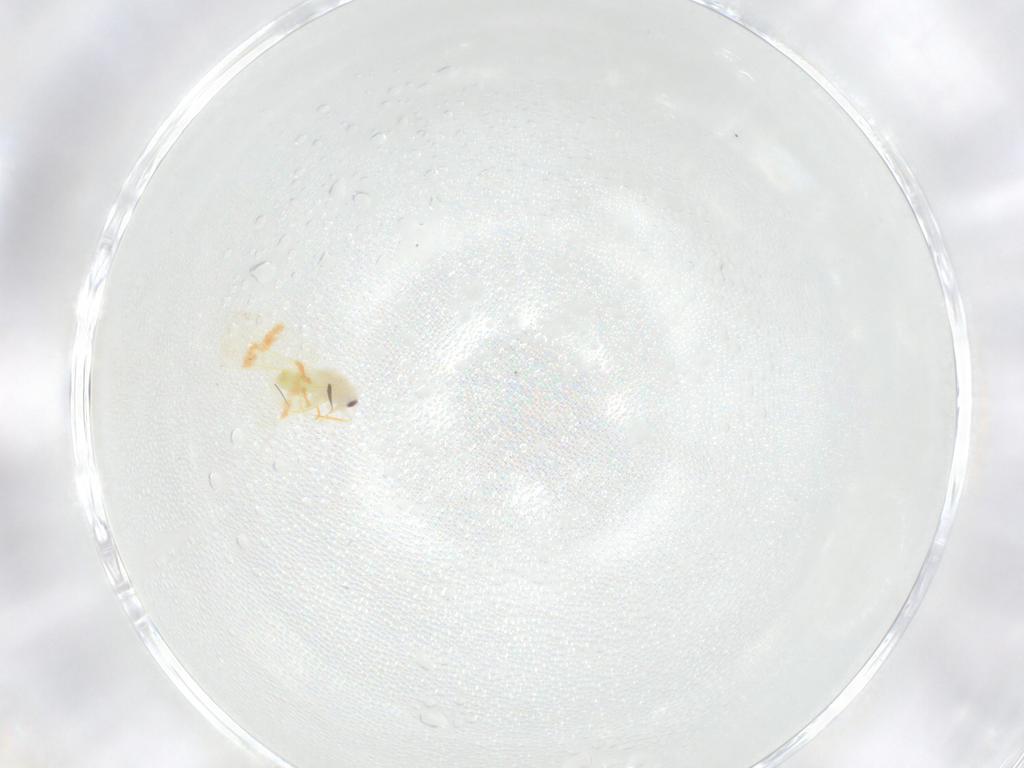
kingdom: Animalia
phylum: Arthropoda
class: Insecta
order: Hemiptera
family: Aleyrodidae
